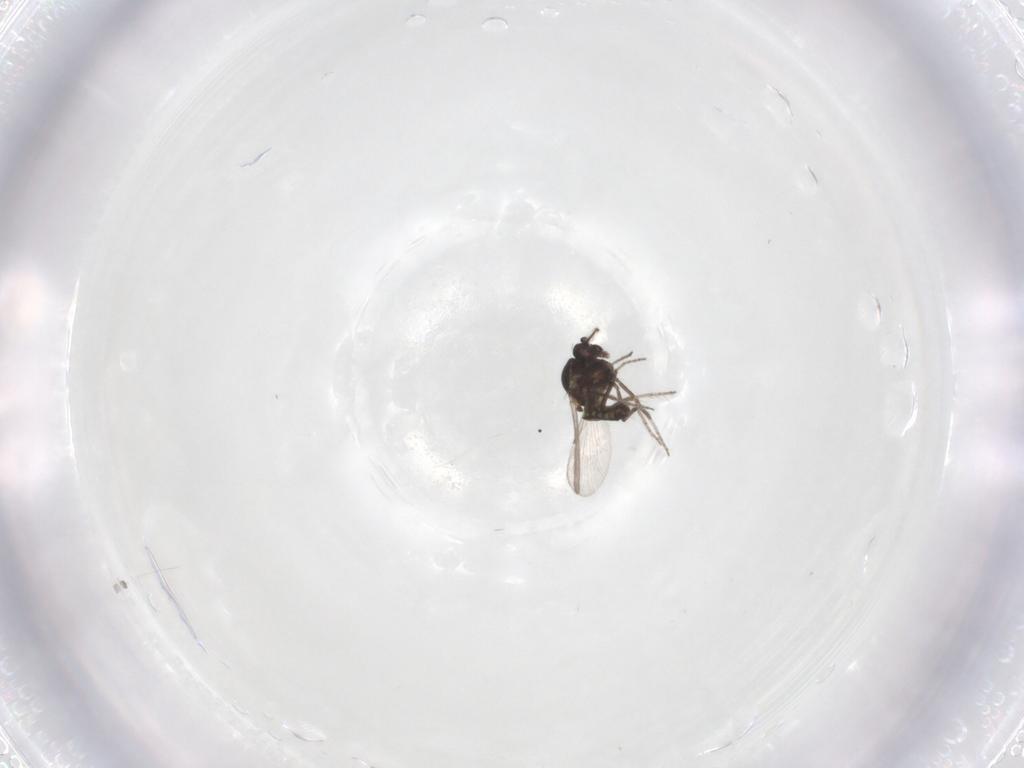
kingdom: Animalia
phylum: Arthropoda
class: Insecta
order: Diptera
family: Ceratopogonidae
